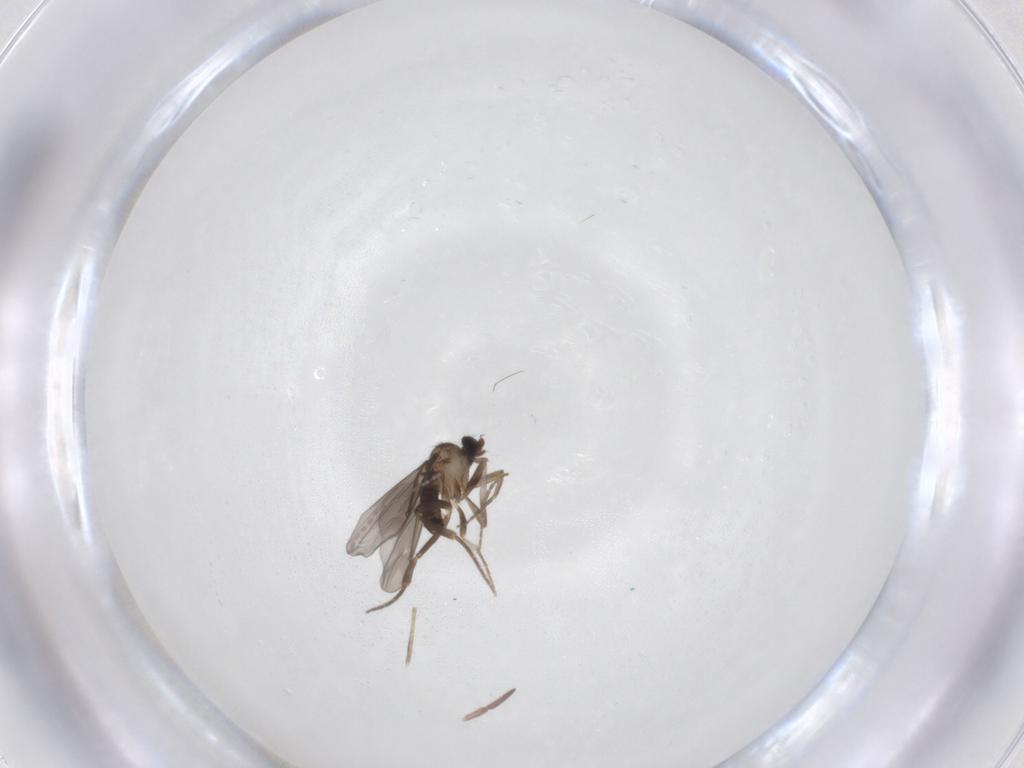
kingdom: Animalia
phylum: Arthropoda
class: Insecta
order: Diptera
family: Phoridae
